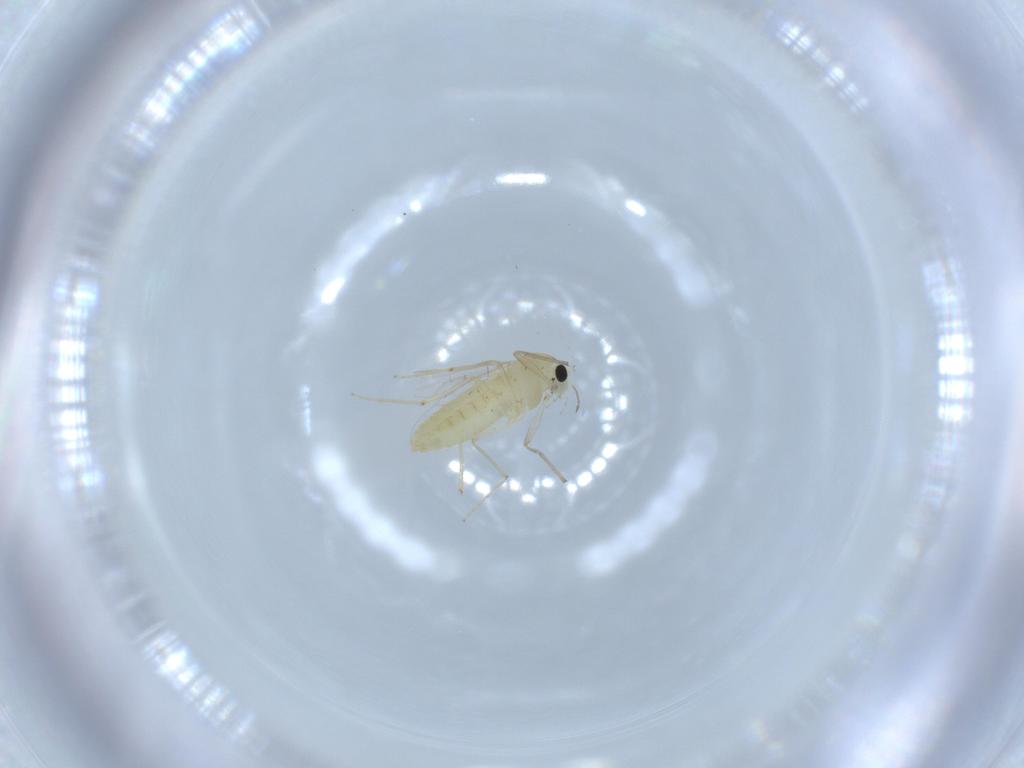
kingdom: Animalia
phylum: Arthropoda
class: Insecta
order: Diptera
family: Chironomidae
